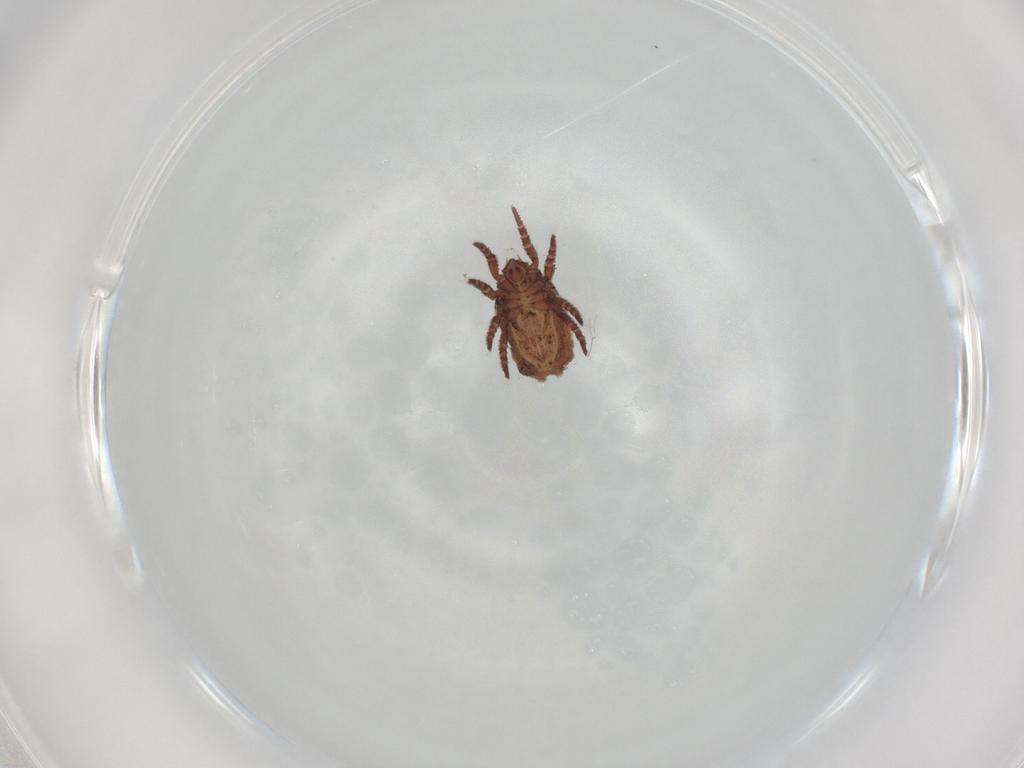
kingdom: Animalia
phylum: Arthropoda
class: Arachnida
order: Sarcoptiformes
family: Crotoniidae
